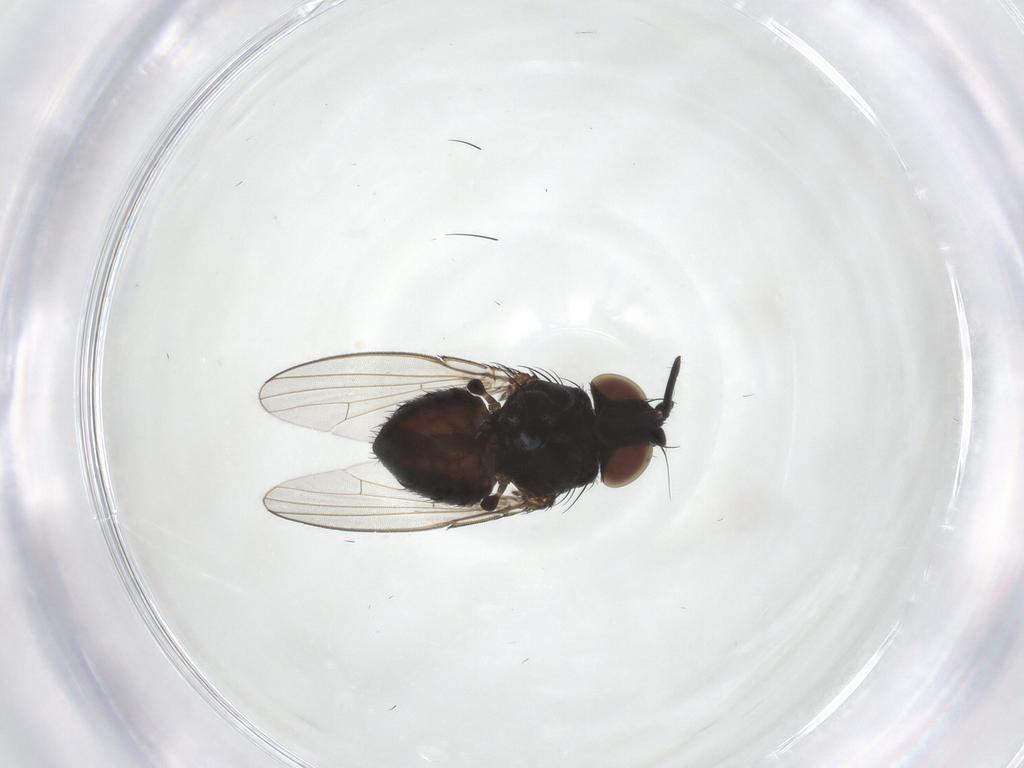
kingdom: Animalia
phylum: Arthropoda
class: Insecta
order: Diptera
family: Milichiidae
